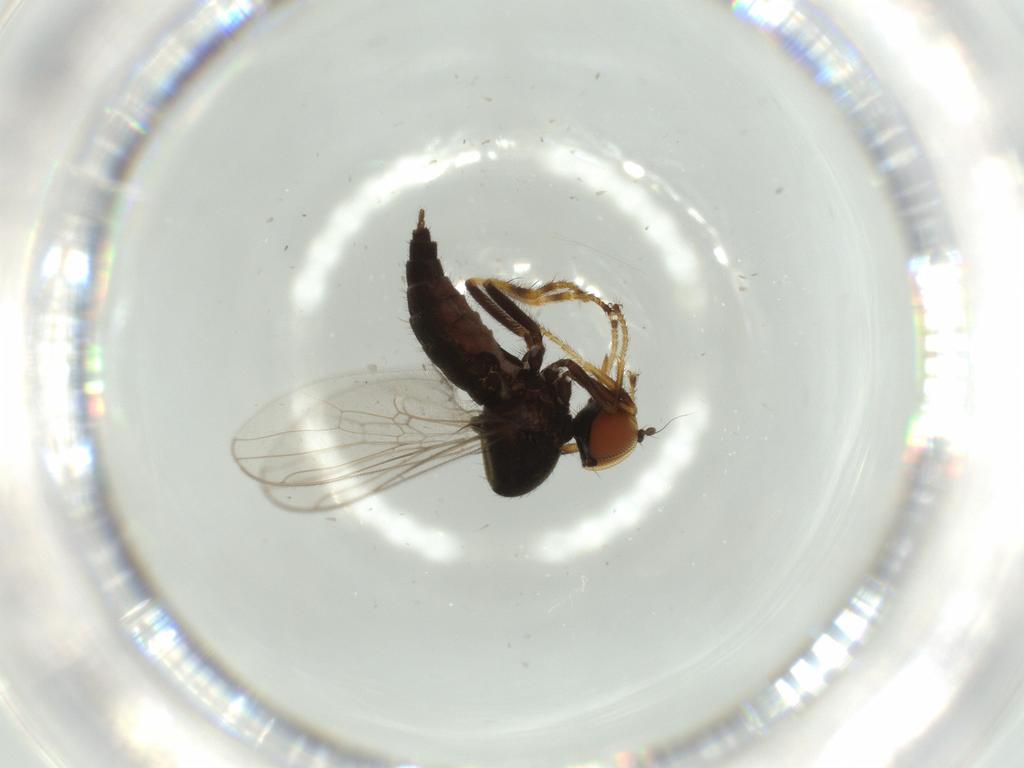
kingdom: Animalia
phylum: Arthropoda
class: Insecta
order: Diptera
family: Hybotidae
